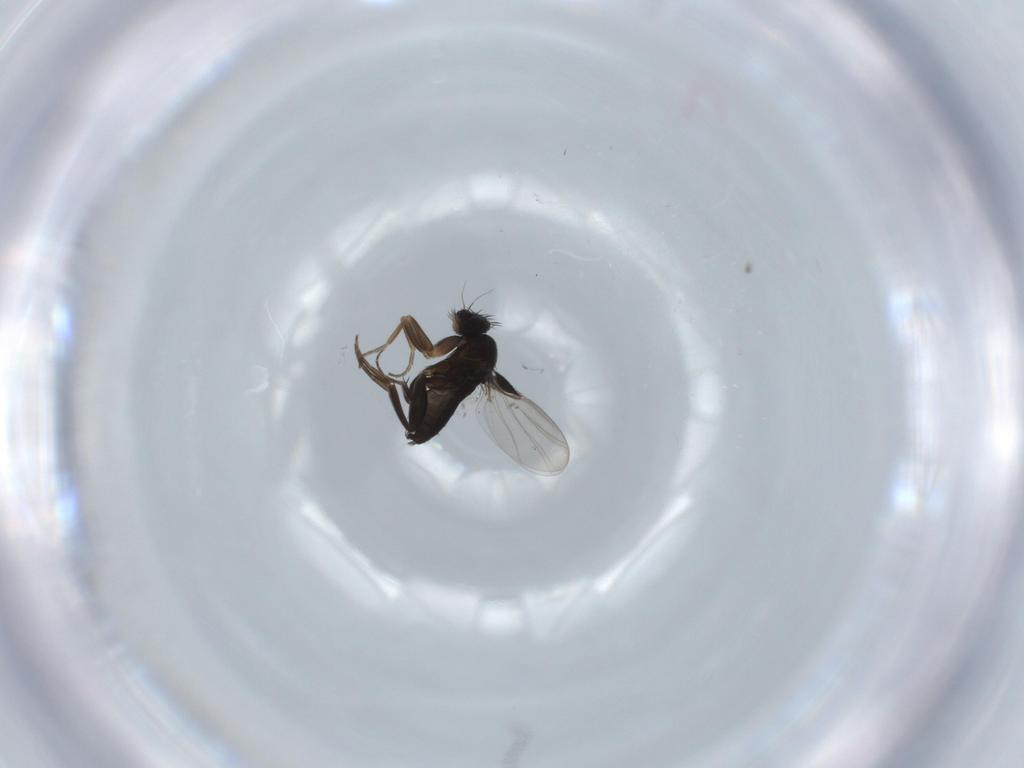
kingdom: Animalia
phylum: Arthropoda
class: Insecta
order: Diptera
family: Phoridae
